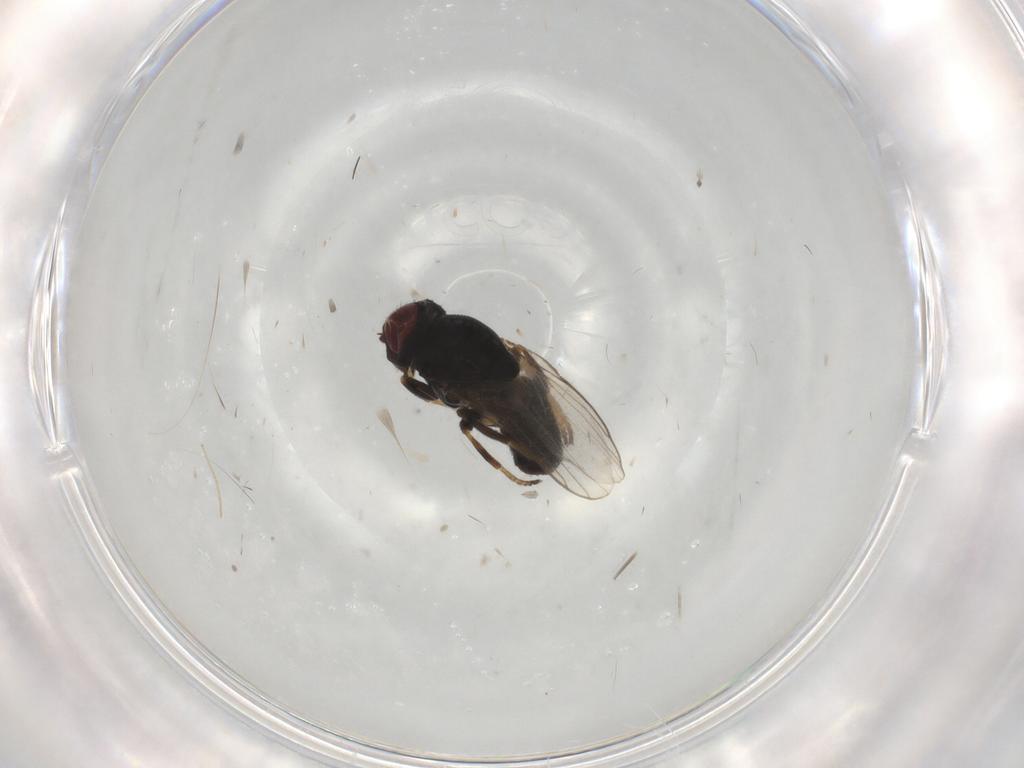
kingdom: Animalia
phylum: Arthropoda
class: Insecta
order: Diptera
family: Chloropidae
